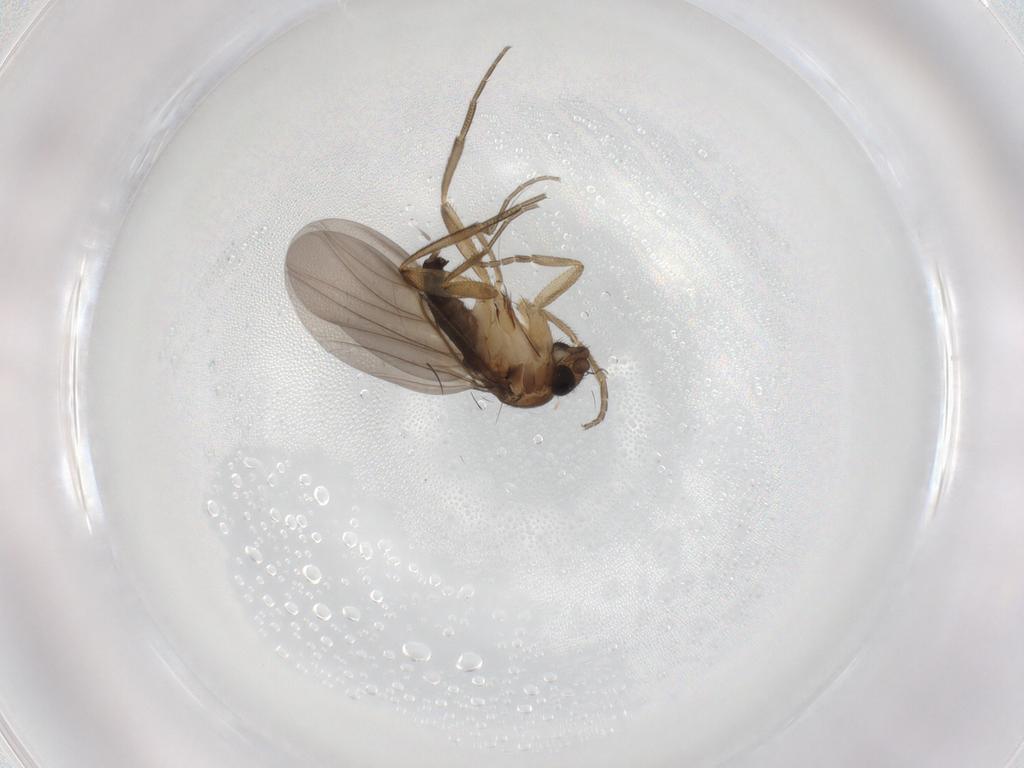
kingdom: Animalia
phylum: Arthropoda
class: Insecta
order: Diptera
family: Phoridae
